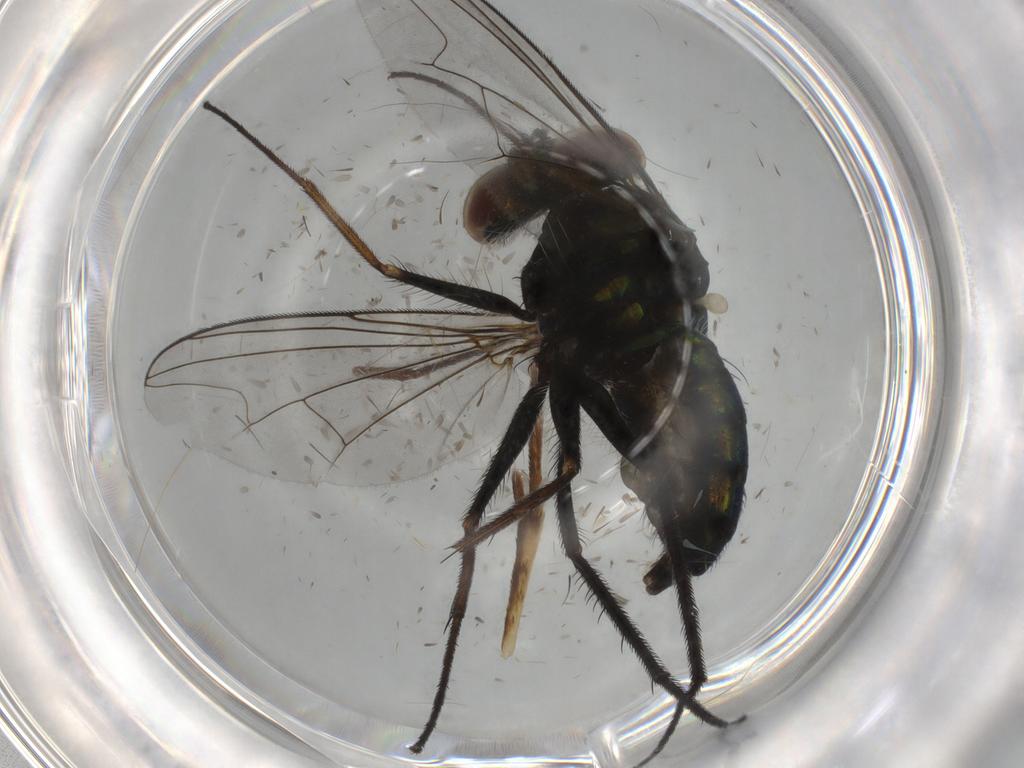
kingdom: Animalia
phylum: Arthropoda
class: Insecta
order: Diptera
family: Dolichopodidae
